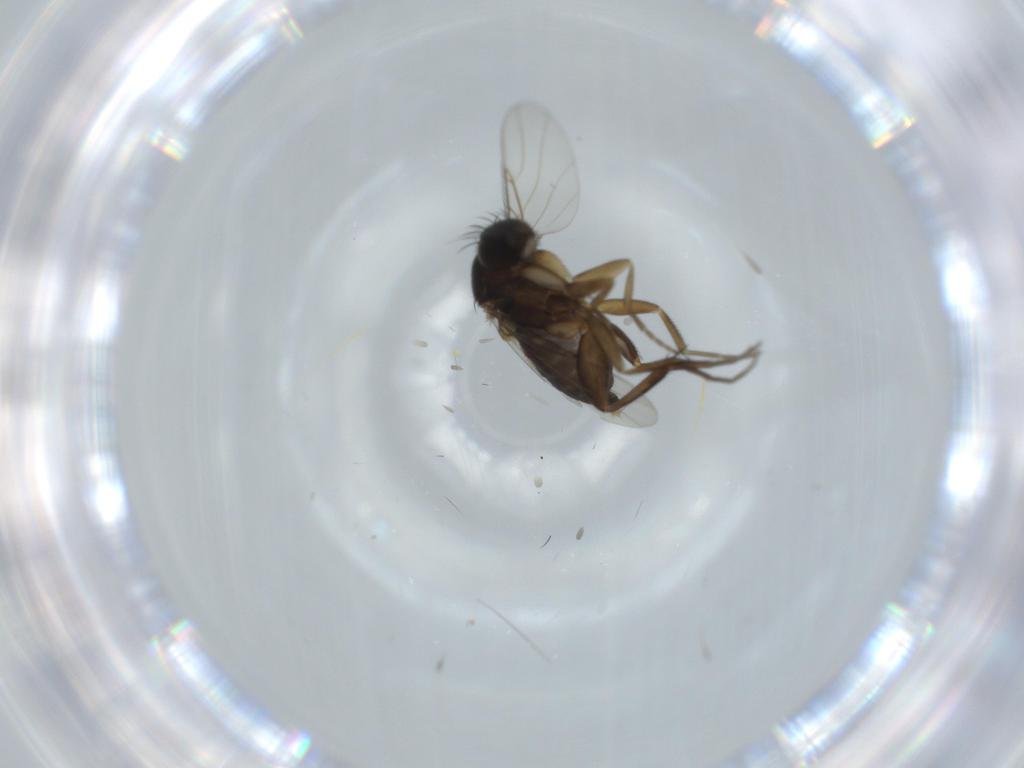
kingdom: Animalia
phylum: Arthropoda
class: Insecta
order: Diptera
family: Phoridae
